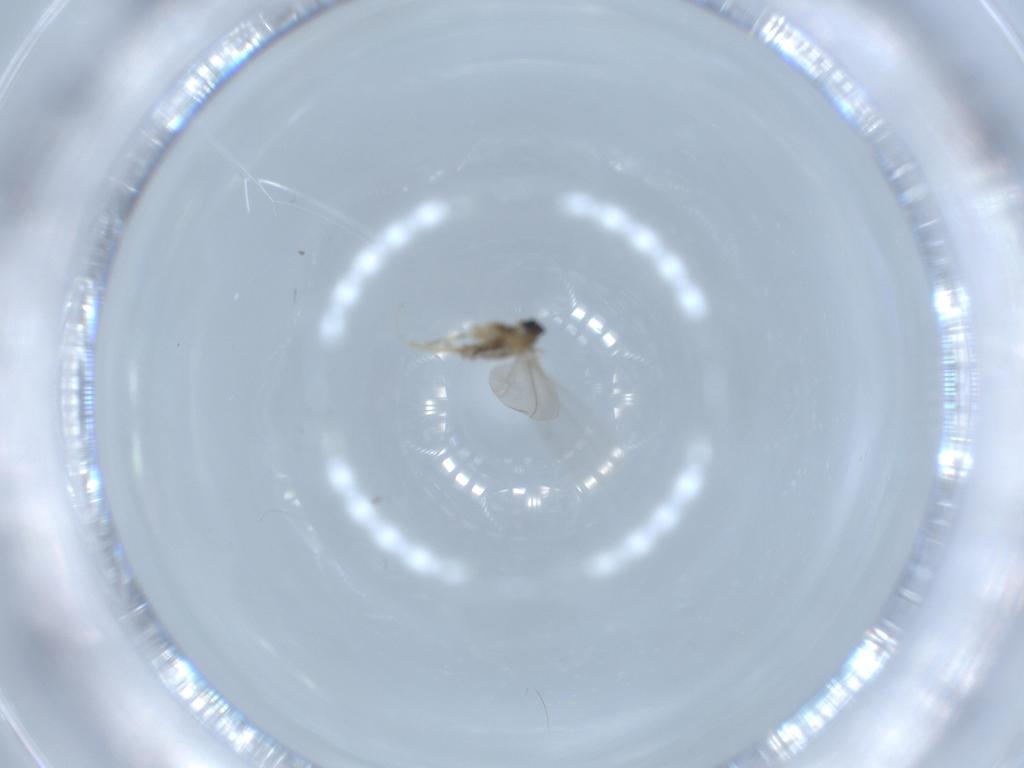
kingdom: Animalia
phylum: Arthropoda
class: Insecta
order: Diptera
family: Cecidomyiidae
